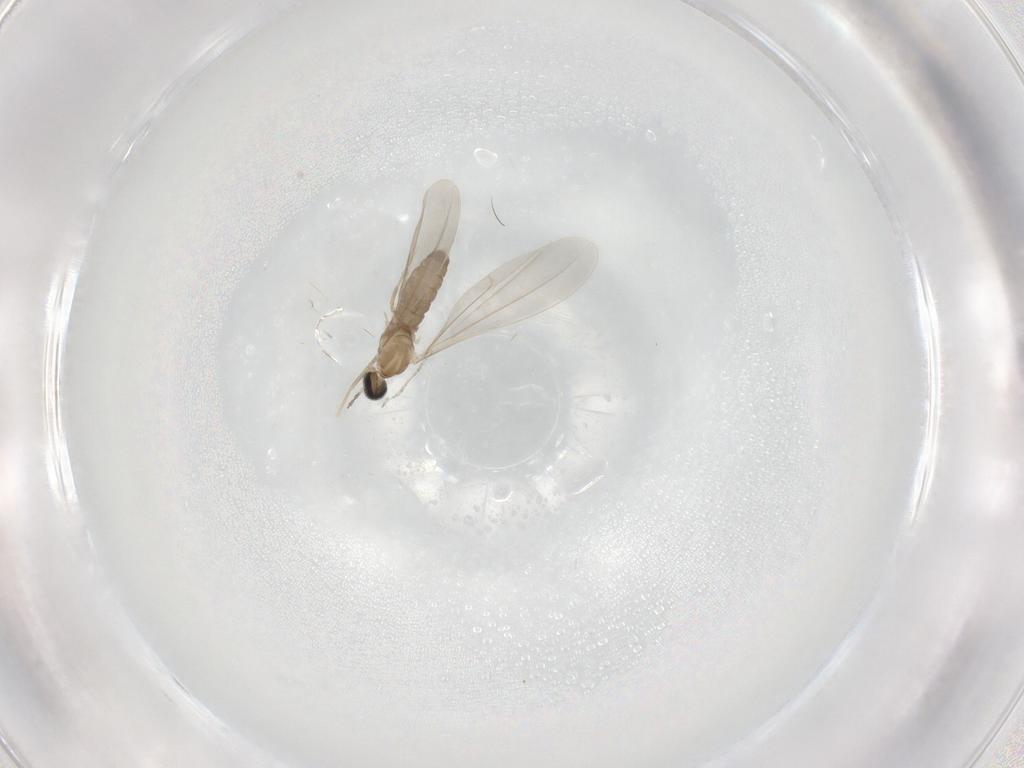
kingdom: Animalia
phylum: Arthropoda
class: Insecta
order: Diptera
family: Cecidomyiidae
